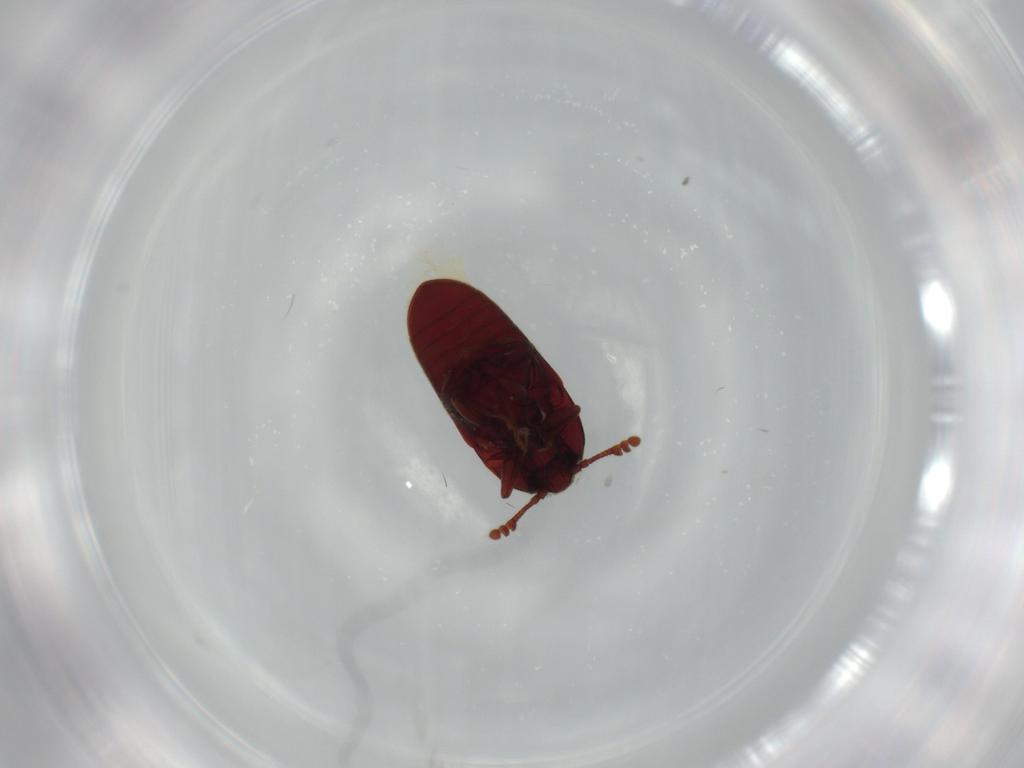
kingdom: Animalia
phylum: Arthropoda
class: Insecta
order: Coleoptera
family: Throscidae
